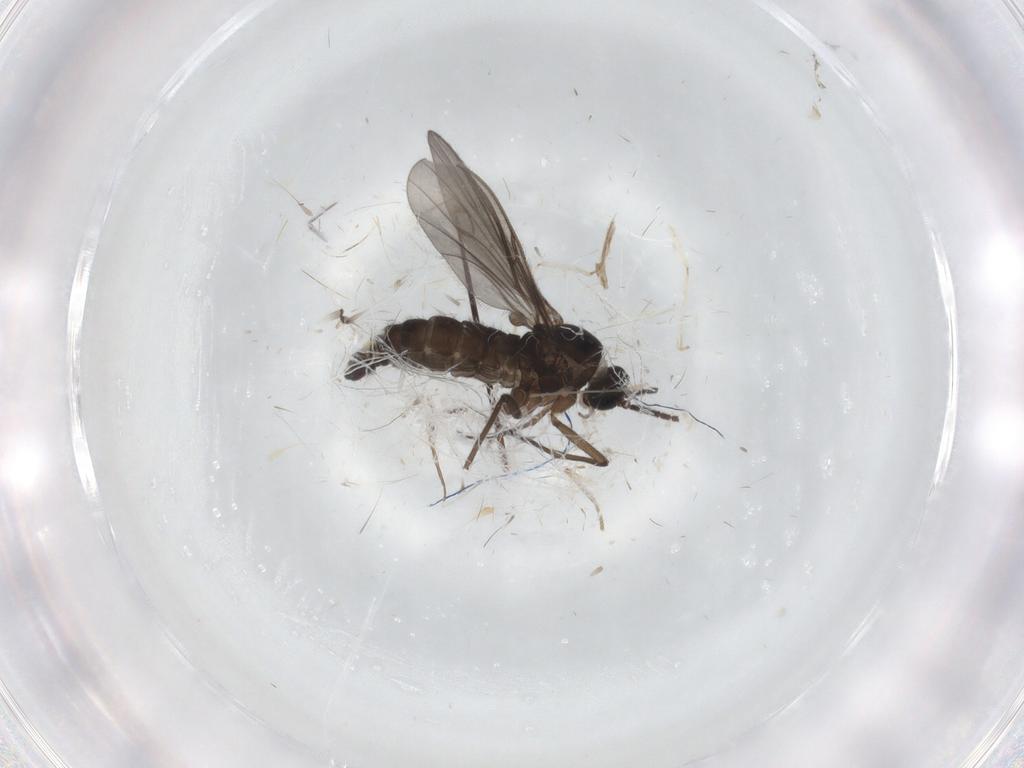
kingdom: Animalia
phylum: Arthropoda
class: Insecta
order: Diptera
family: Sciaridae
